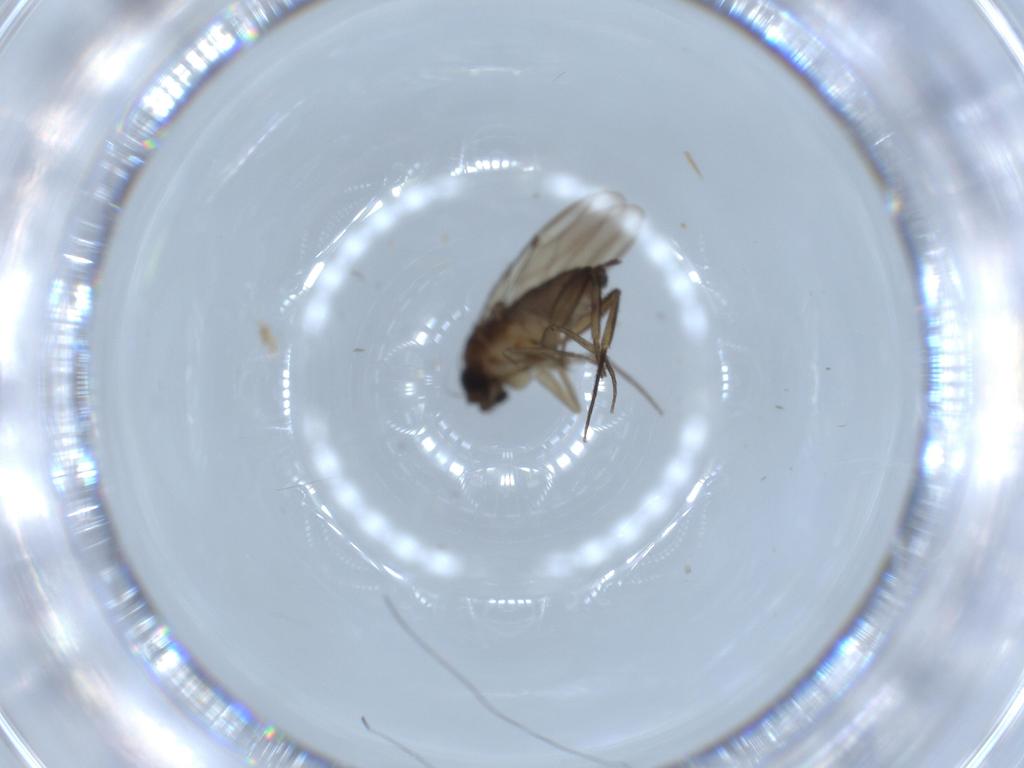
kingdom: Animalia
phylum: Arthropoda
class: Insecta
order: Diptera
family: Phoridae
